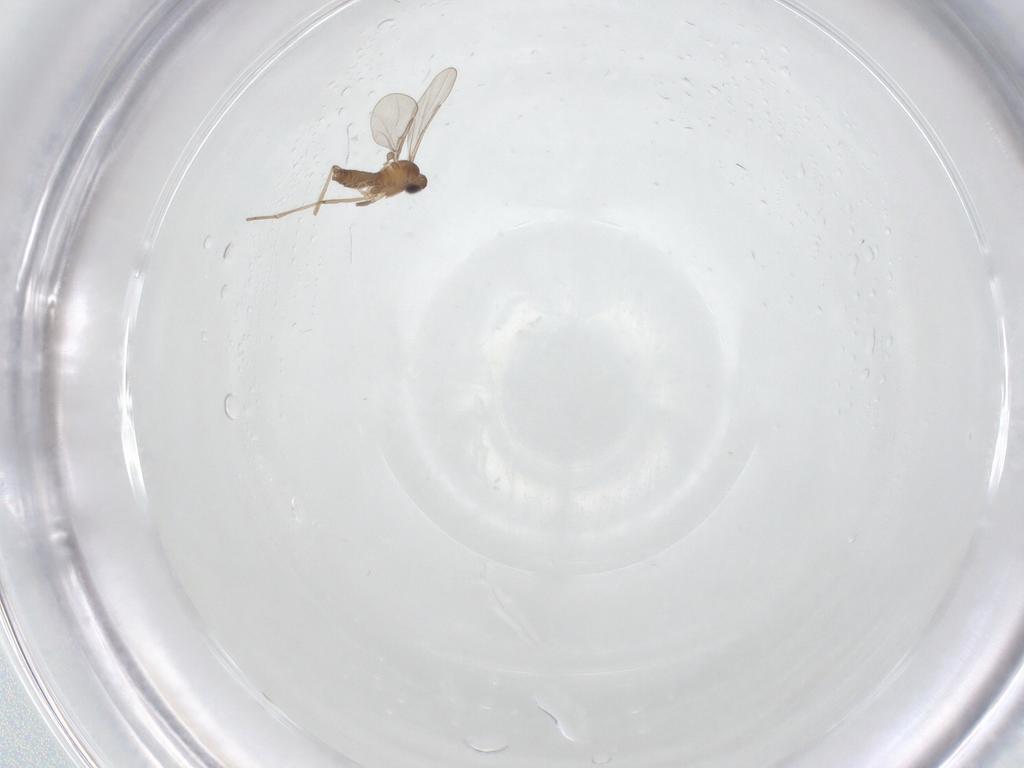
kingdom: Animalia
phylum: Arthropoda
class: Insecta
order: Diptera
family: Cecidomyiidae
